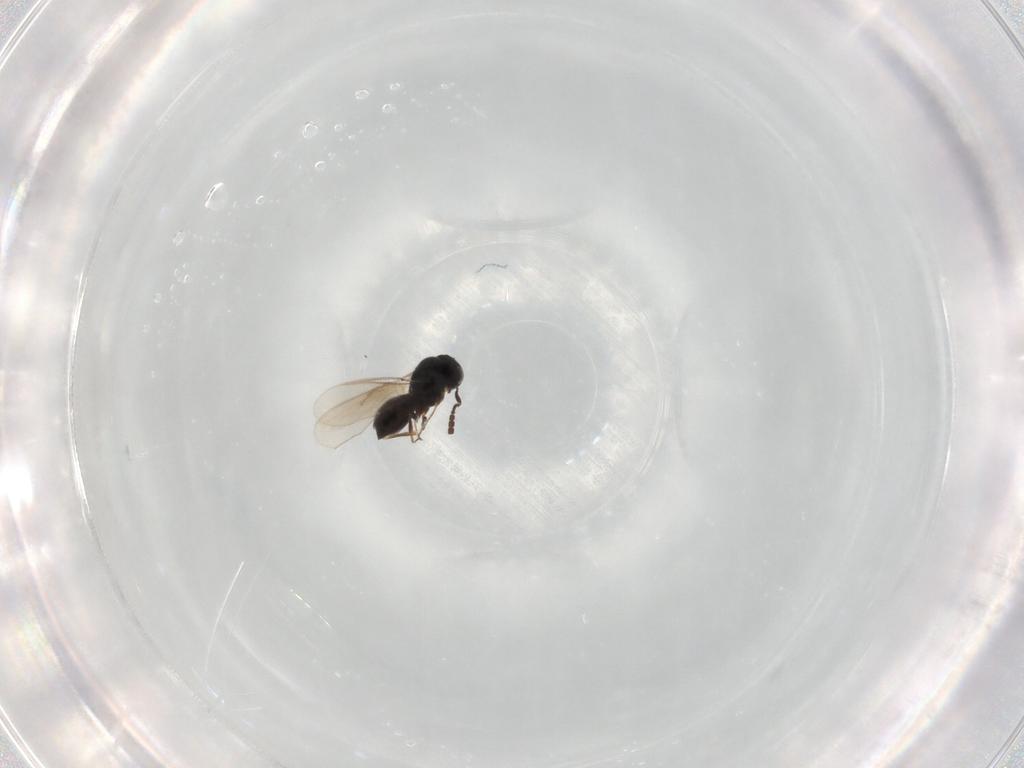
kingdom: Animalia
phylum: Arthropoda
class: Insecta
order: Hymenoptera
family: Scelionidae
